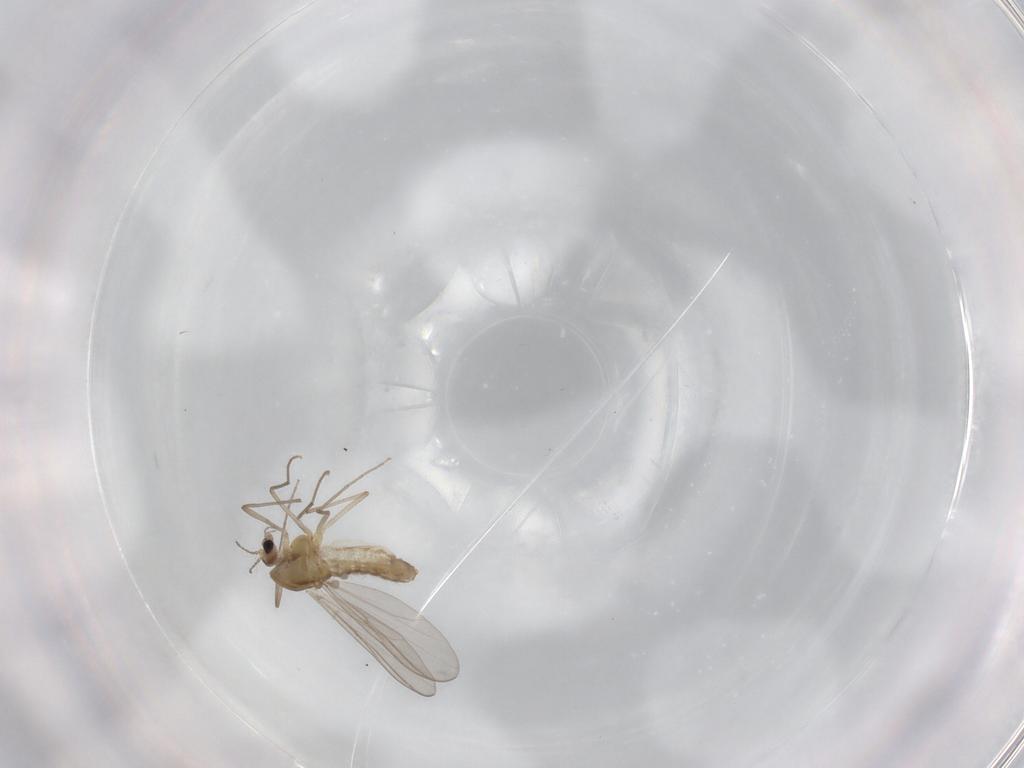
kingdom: Animalia
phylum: Arthropoda
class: Insecta
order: Diptera
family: Chironomidae
